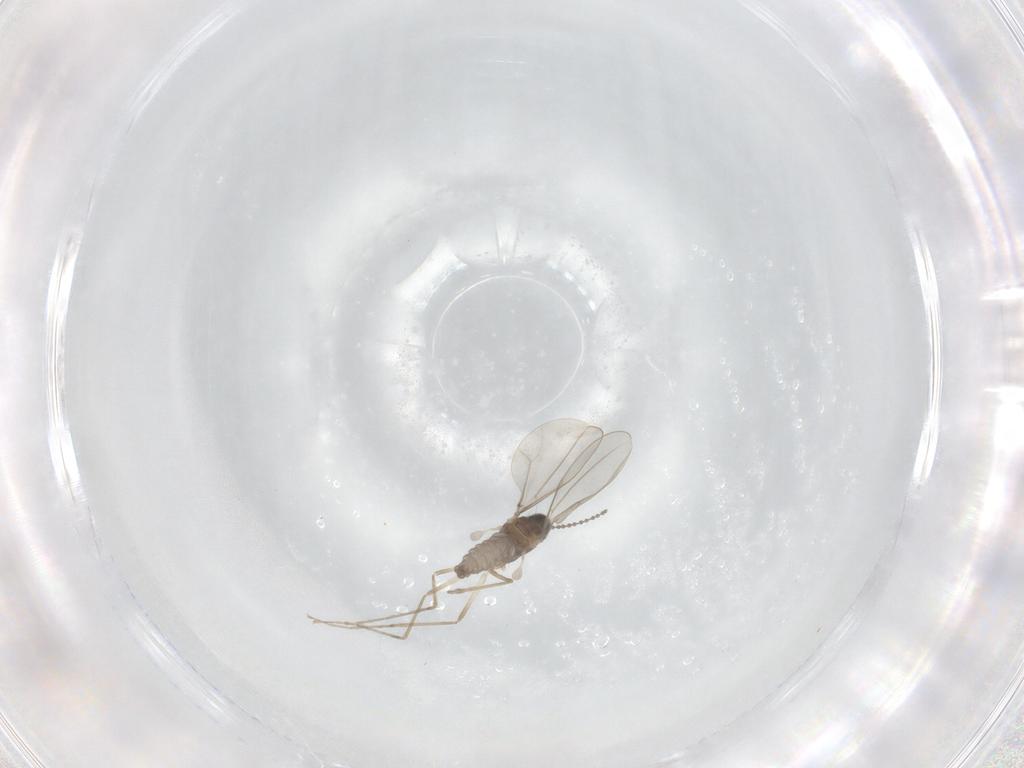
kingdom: Animalia
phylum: Arthropoda
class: Insecta
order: Diptera
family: Cecidomyiidae
